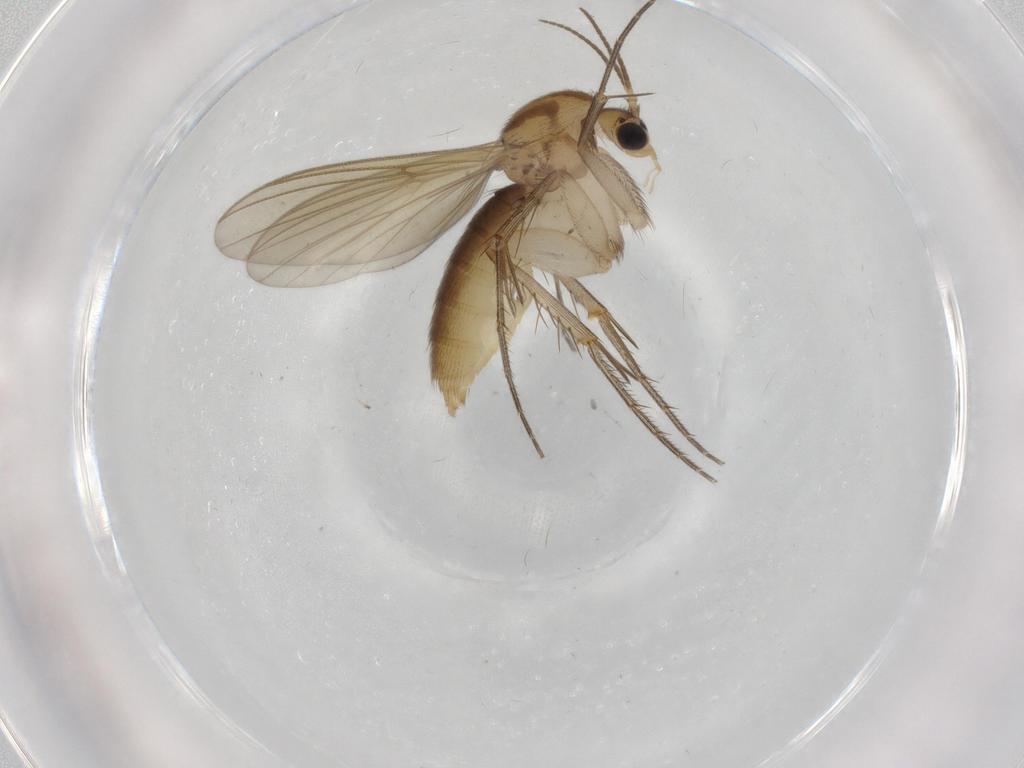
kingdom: Animalia
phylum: Arthropoda
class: Insecta
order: Diptera
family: Mycetophilidae
